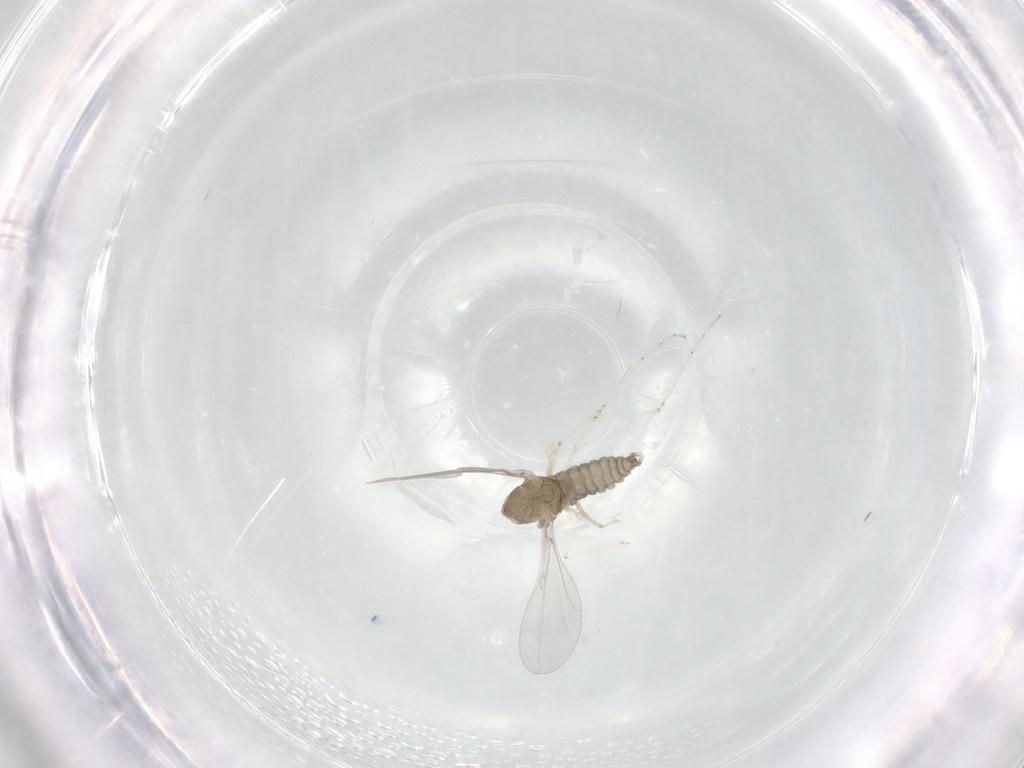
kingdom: Animalia
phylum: Arthropoda
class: Insecta
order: Diptera
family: Cecidomyiidae
